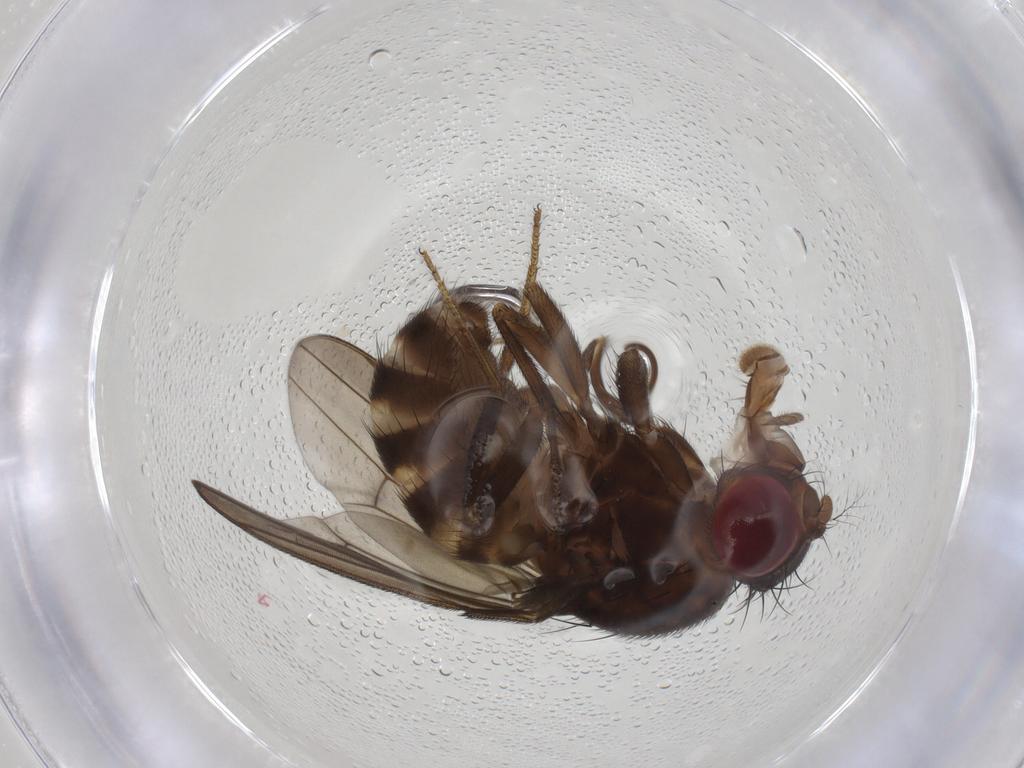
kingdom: Animalia
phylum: Arthropoda
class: Insecta
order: Diptera
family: Drosophilidae
